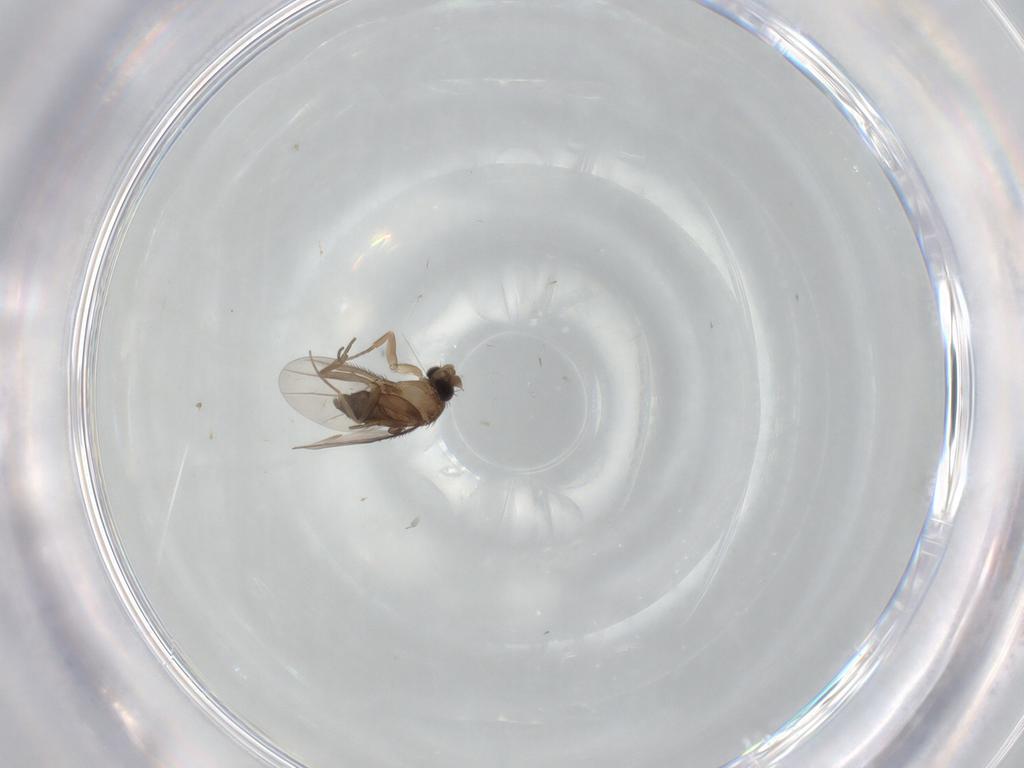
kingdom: Animalia
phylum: Arthropoda
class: Insecta
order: Diptera
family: Phoridae
